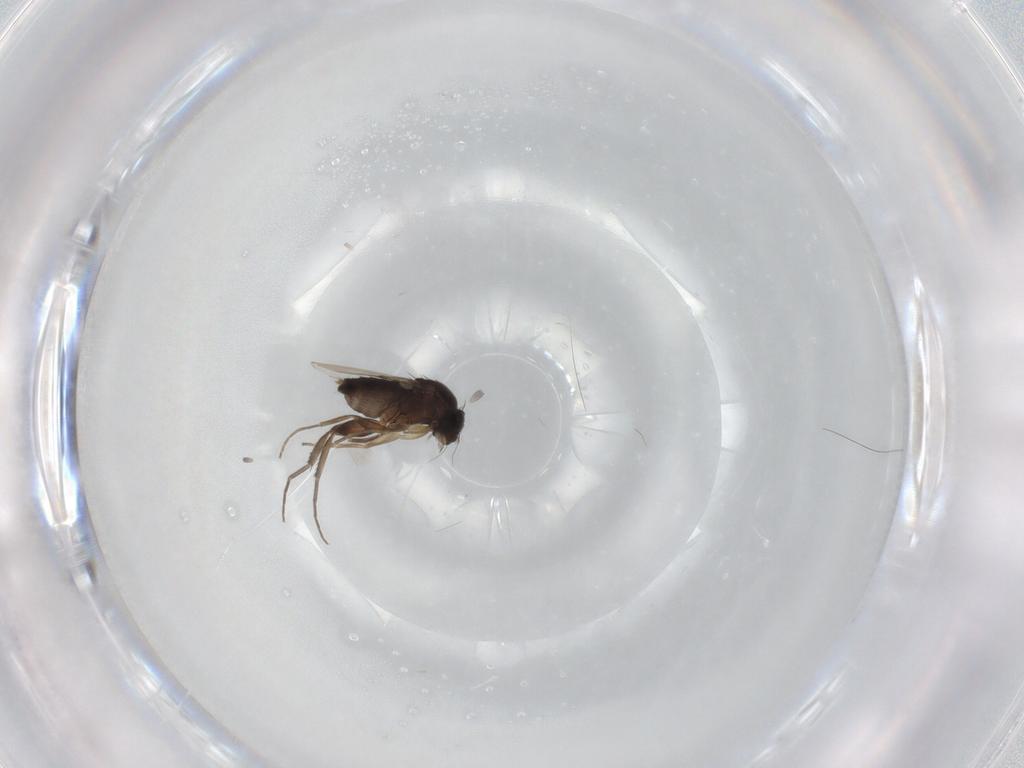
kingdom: Animalia
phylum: Arthropoda
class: Insecta
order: Diptera
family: Phoridae
